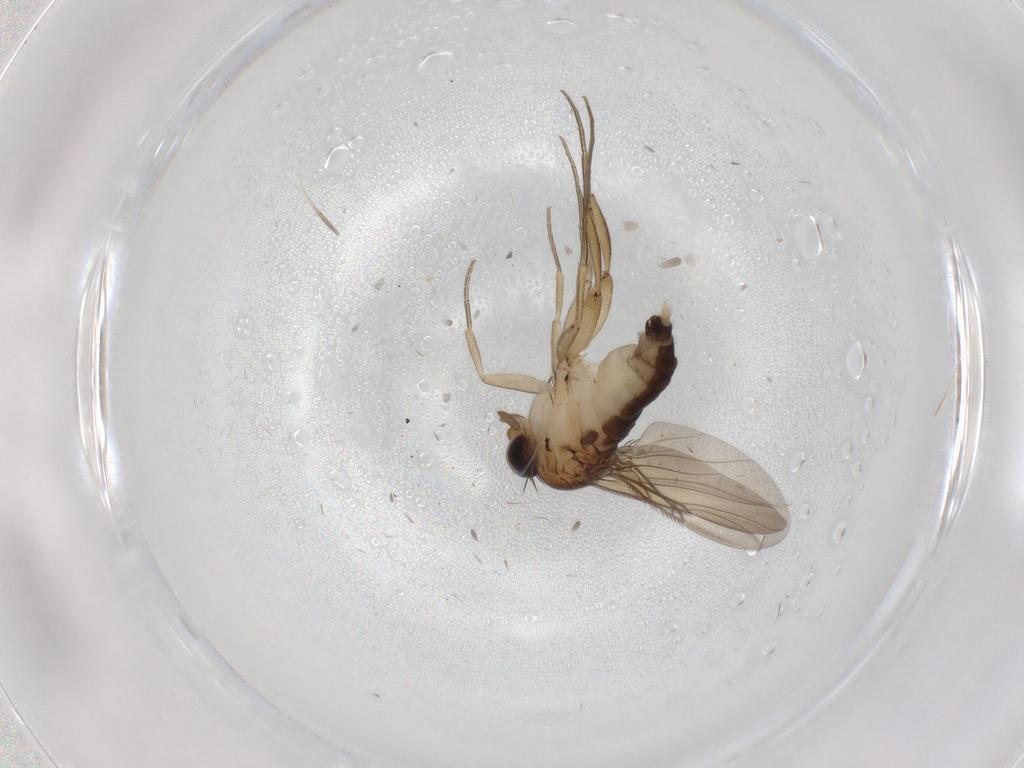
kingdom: Animalia
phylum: Arthropoda
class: Insecta
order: Diptera
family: Phoridae
